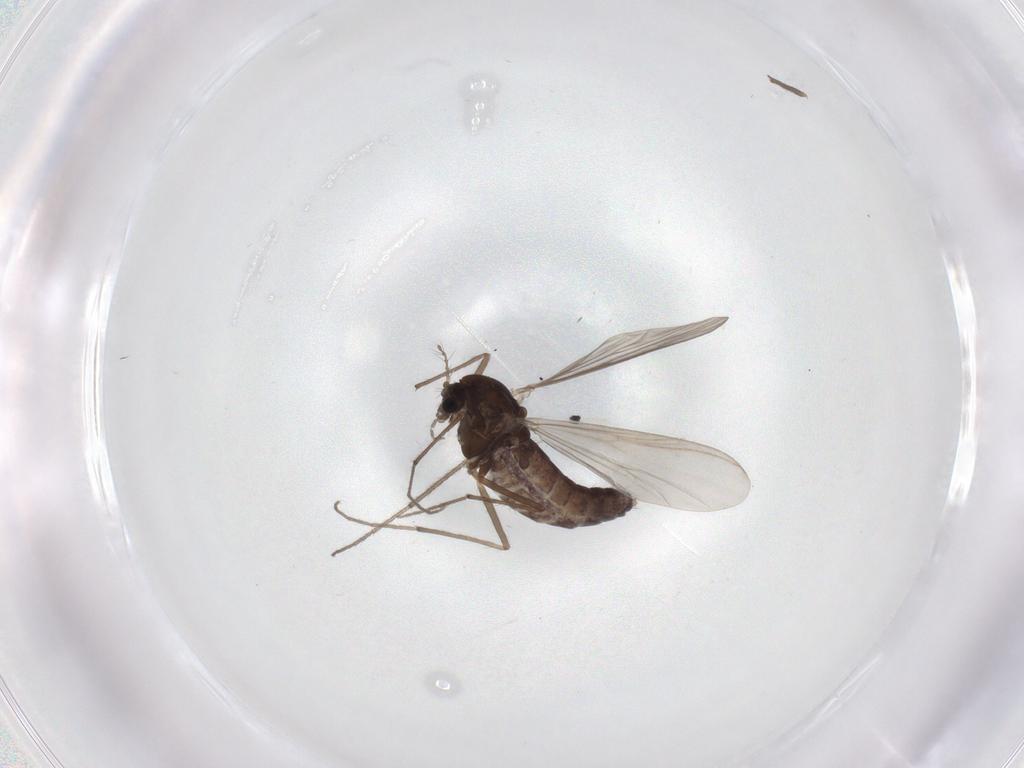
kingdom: Animalia
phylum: Arthropoda
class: Insecta
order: Diptera
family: Chironomidae
